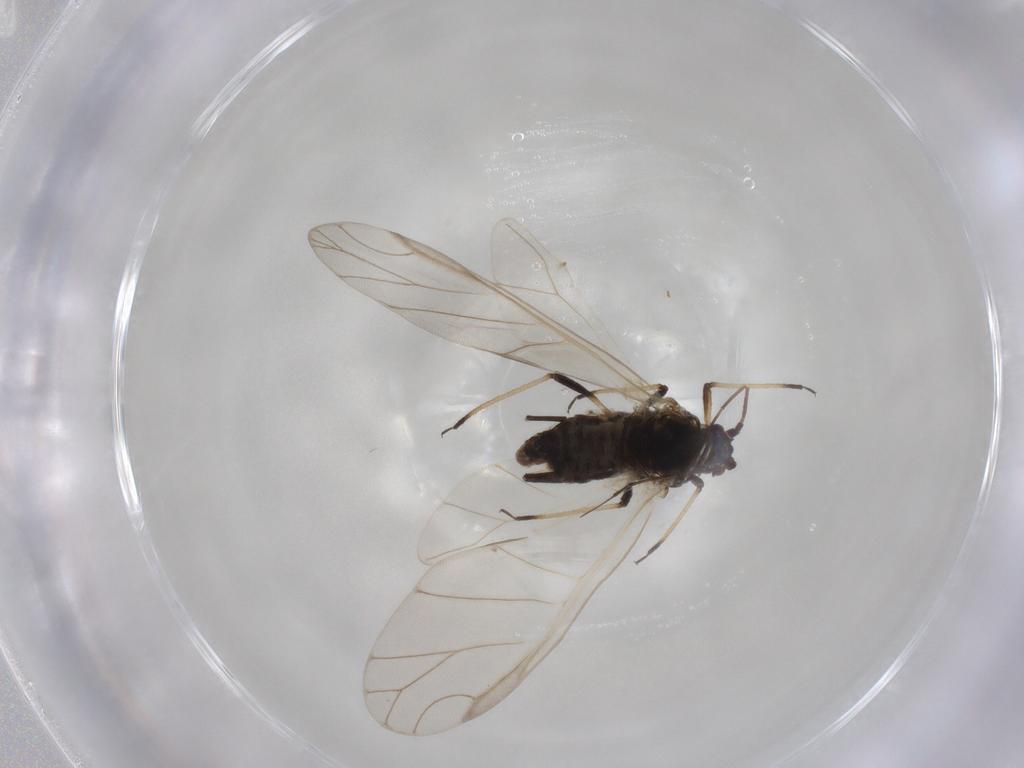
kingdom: Animalia
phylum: Arthropoda
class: Insecta
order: Hemiptera
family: Aphididae
